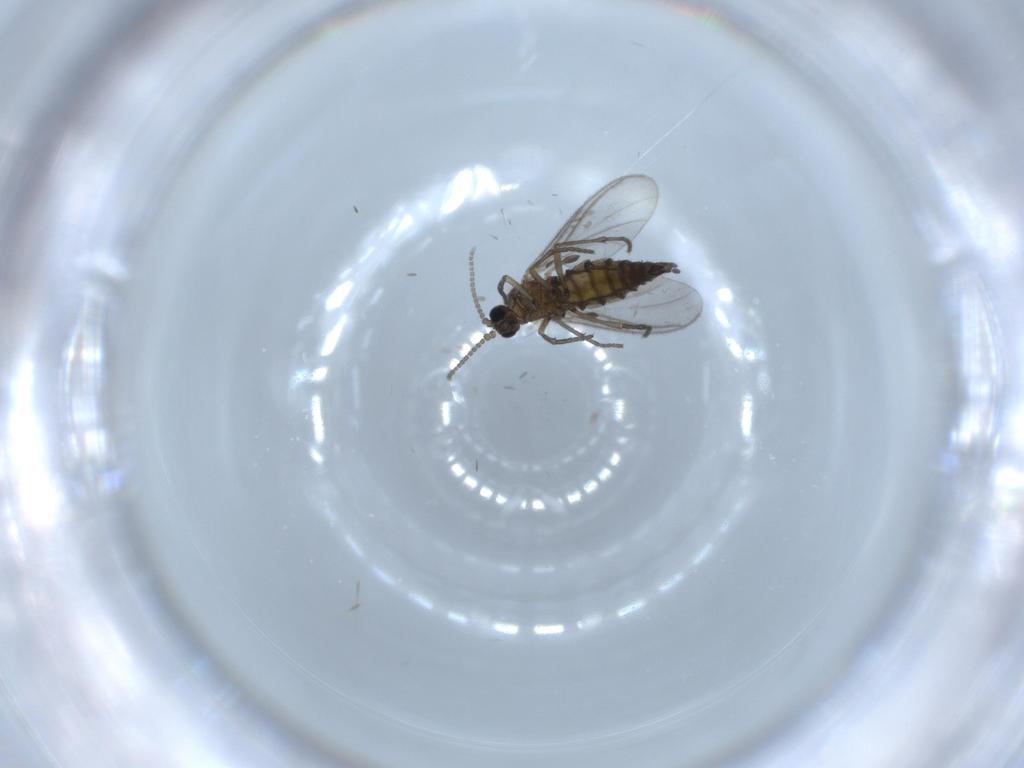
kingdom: Animalia
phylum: Arthropoda
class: Insecta
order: Diptera
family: Sciaridae
